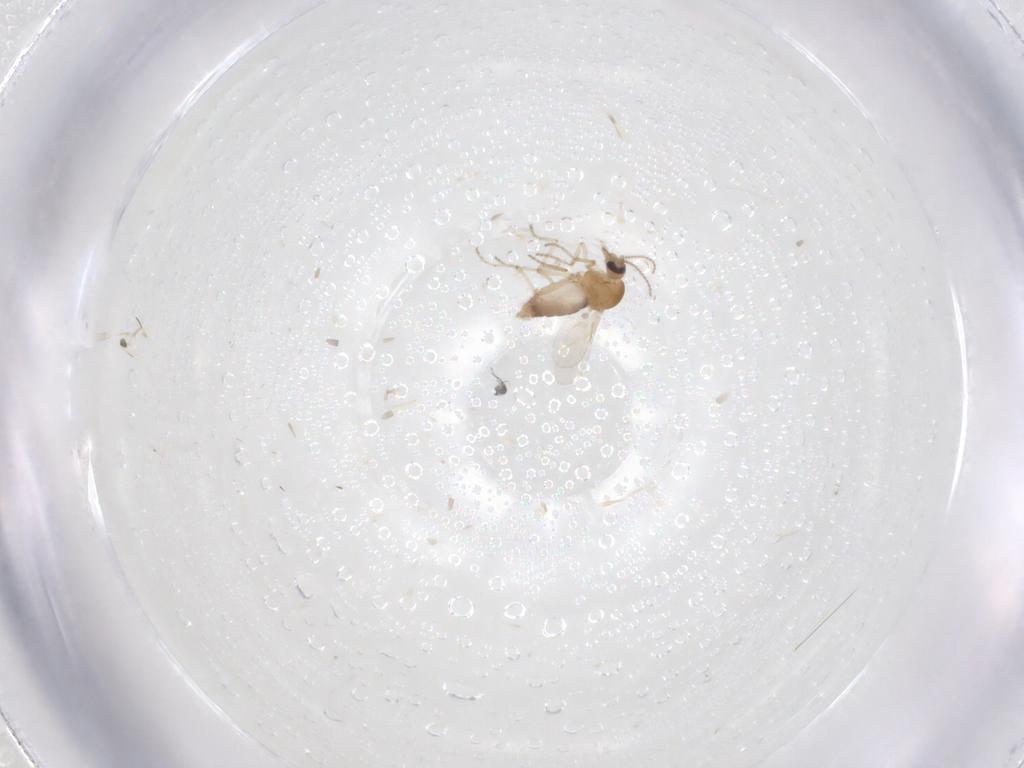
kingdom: Animalia
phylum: Arthropoda
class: Insecta
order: Diptera
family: Ceratopogonidae
